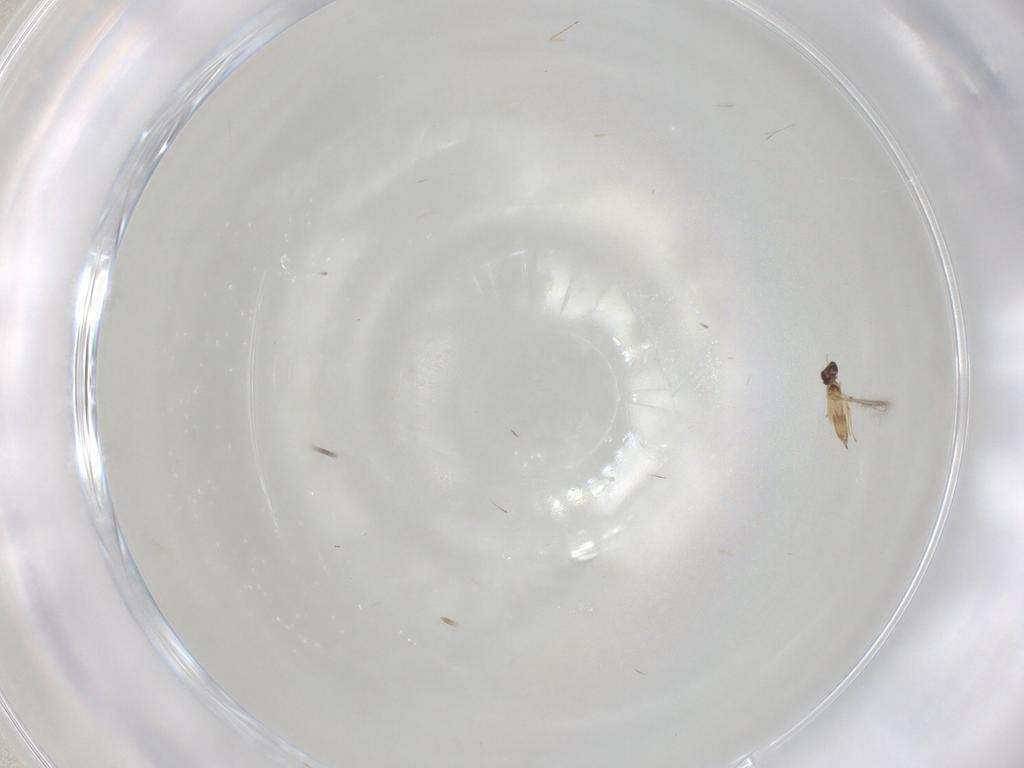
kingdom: Animalia
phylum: Arthropoda
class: Insecta
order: Hymenoptera
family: Mymaridae
